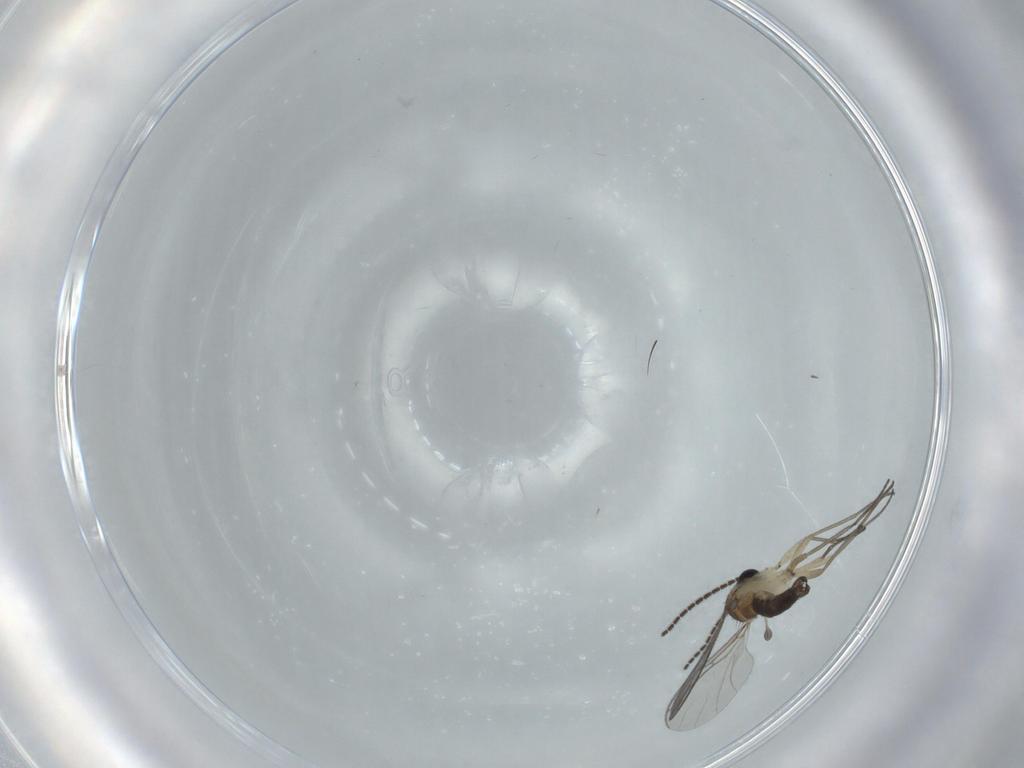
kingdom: Animalia
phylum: Arthropoda
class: Insecta
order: Diptera
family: Sciaridae
